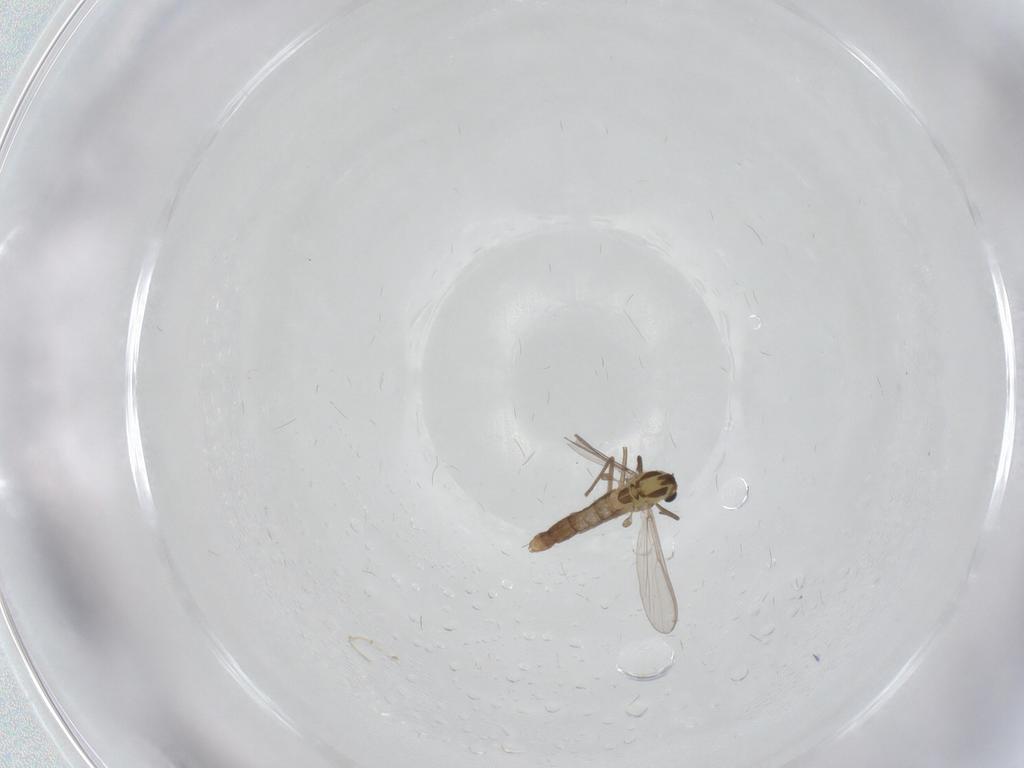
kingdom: Animalia
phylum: Arthropoda
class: Insecta
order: Diptera
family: Chironomidae
